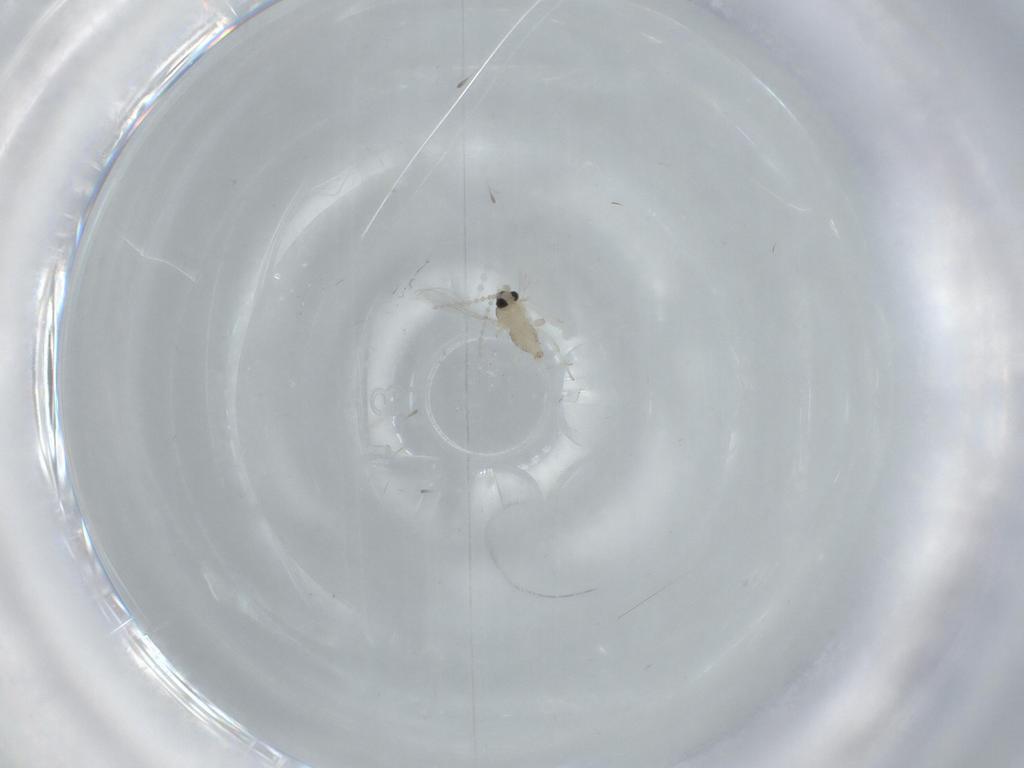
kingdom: Animalia
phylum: Arthropoda
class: Insecta
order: Diptera
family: Cecidomyiidae
